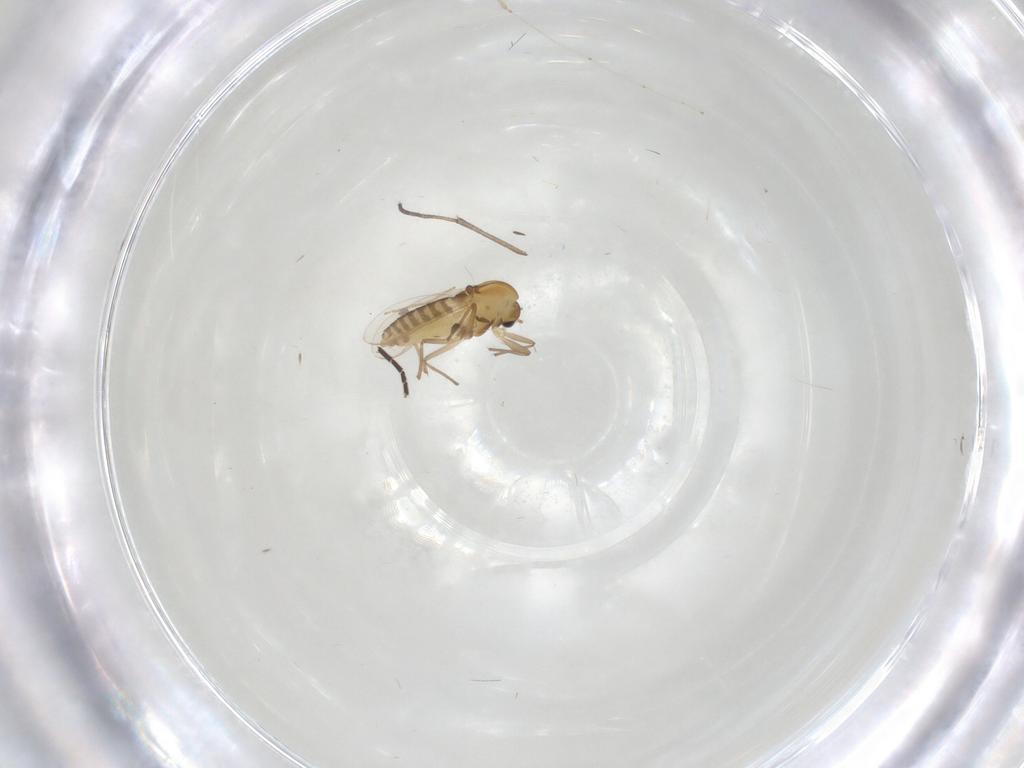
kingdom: Animalia
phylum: Arthropoda
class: Insecta
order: Diptera
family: Chironomidae
